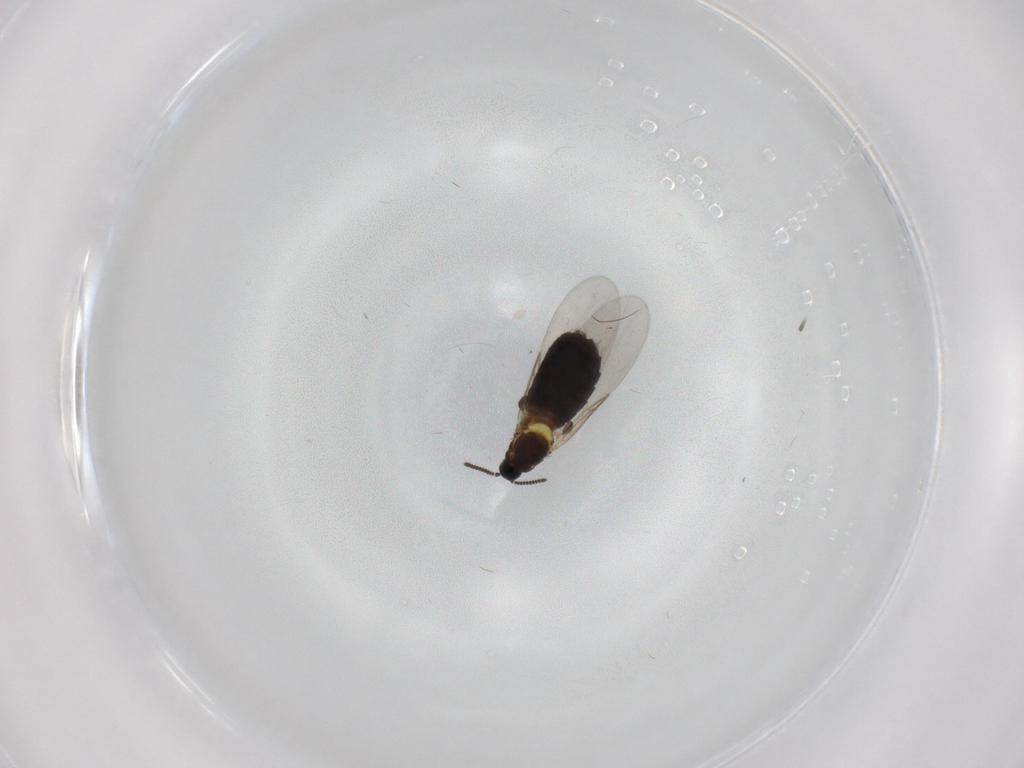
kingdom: Animalia
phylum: Arthropoda
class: Insecta
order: Diptera
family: Scatopsidae
